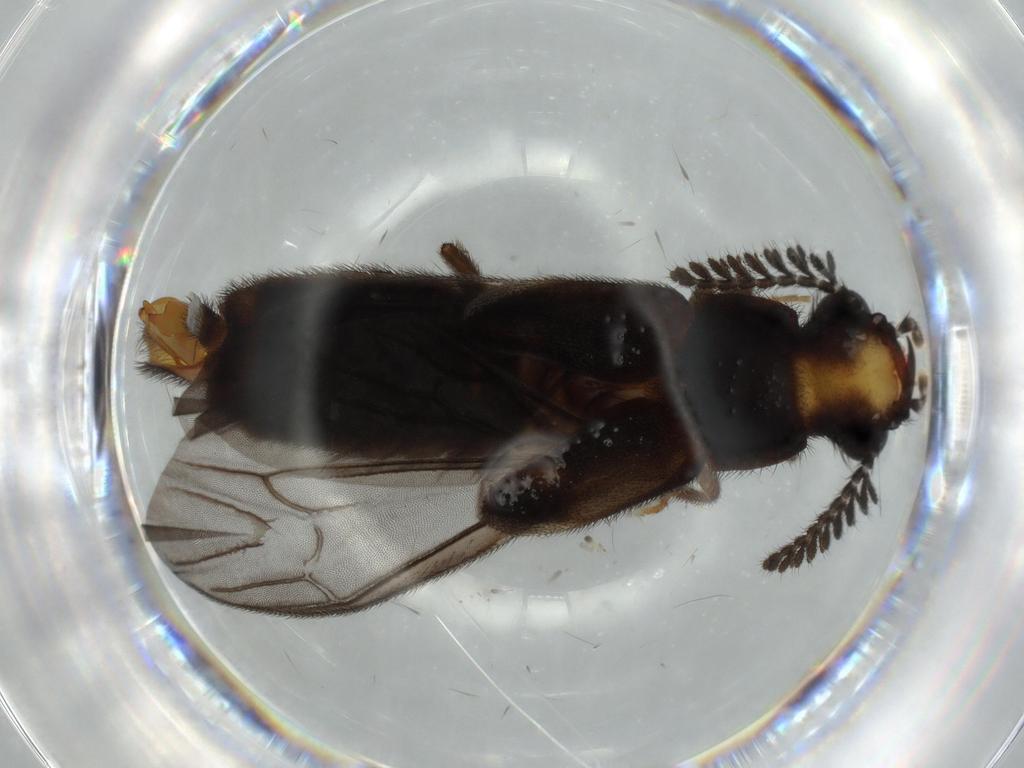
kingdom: Animalia
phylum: Arthropoda
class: Insecta
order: Coleoptera
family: Phengodidae
